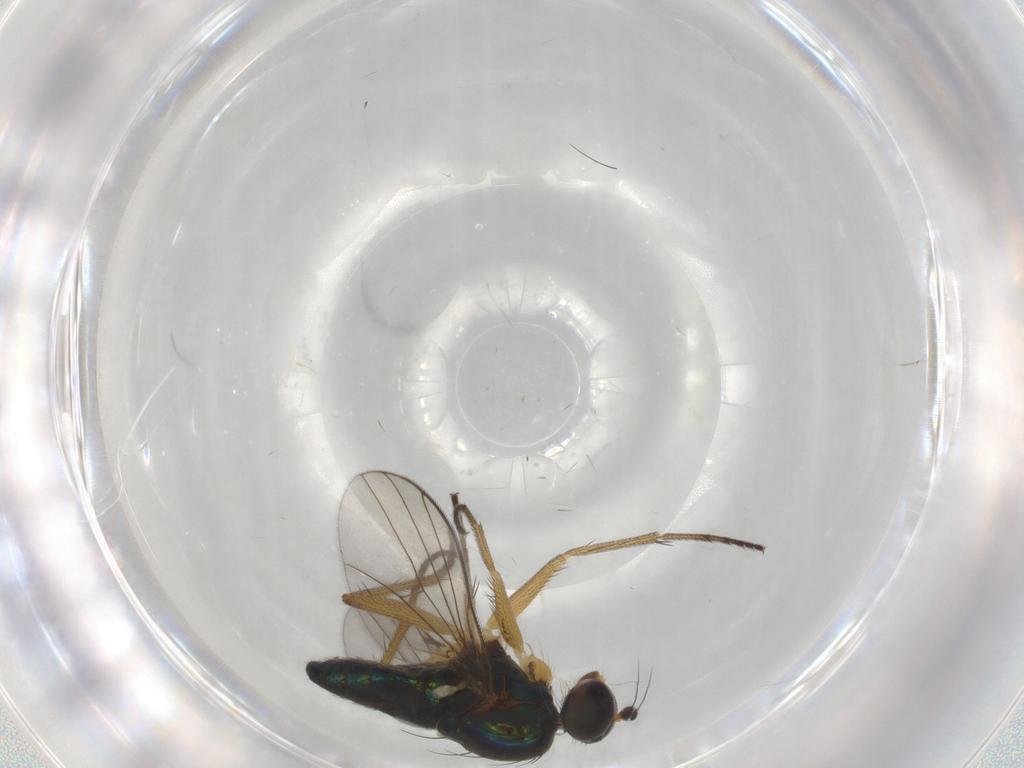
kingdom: Animalia
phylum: Arthropoda
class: Insecta
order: Diptera
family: Dolichopodidae
